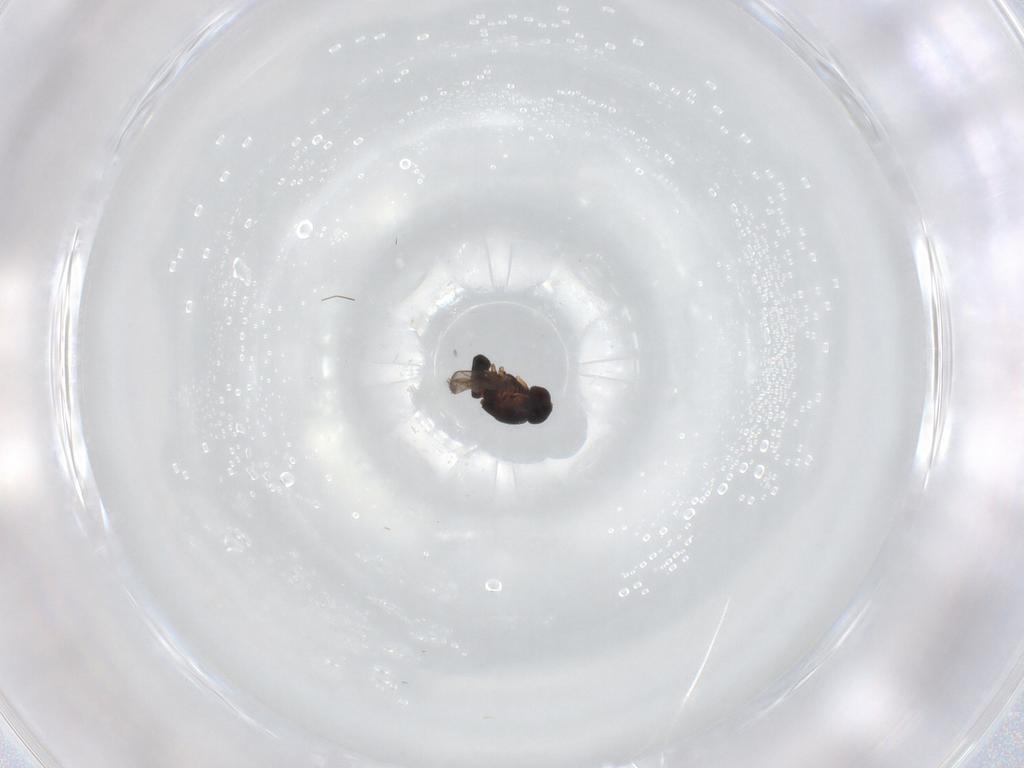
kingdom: Animalia
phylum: Arthropoda
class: Insecta
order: Diptera
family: Sphaeroceridae
